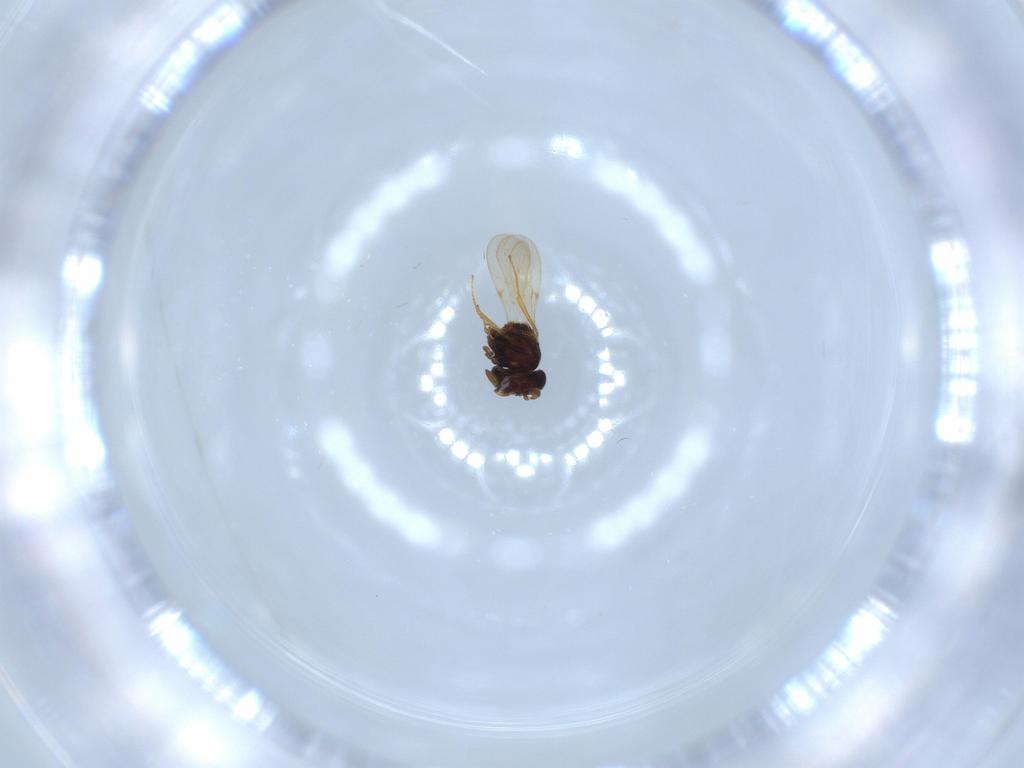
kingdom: Animalia
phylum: Arthropoda
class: Insecta
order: Hymenoptera
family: Scelionidae
